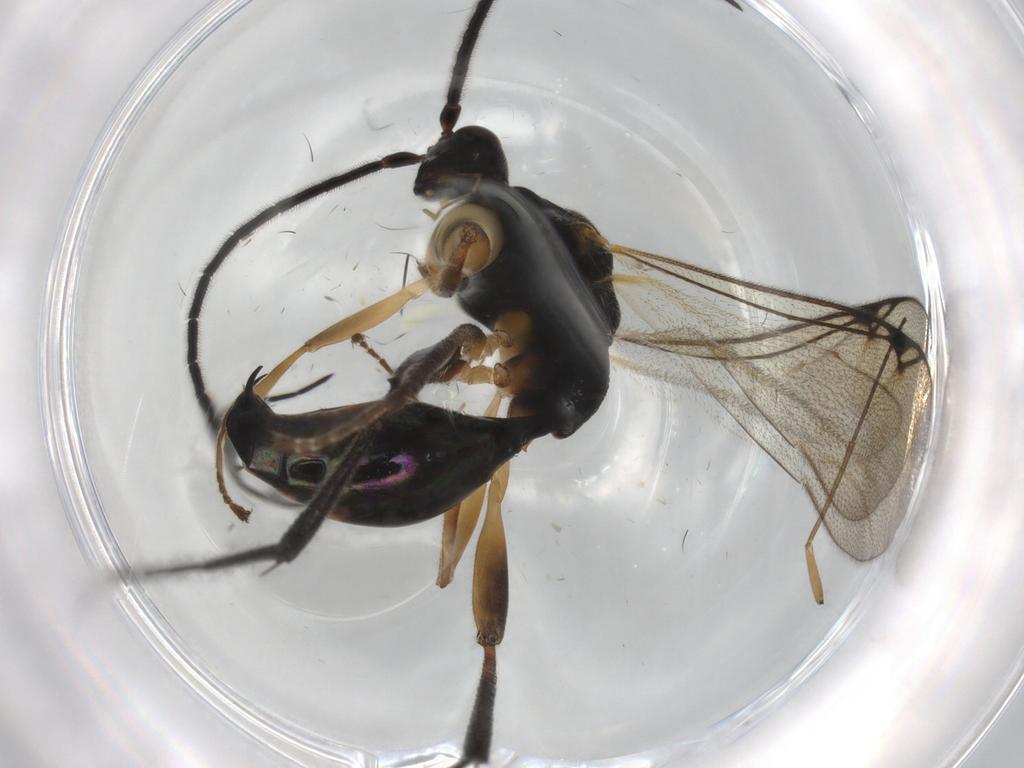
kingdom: Animalia
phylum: Arthropoda
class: Insecta
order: Hymenoptera
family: Proctotrupidae
